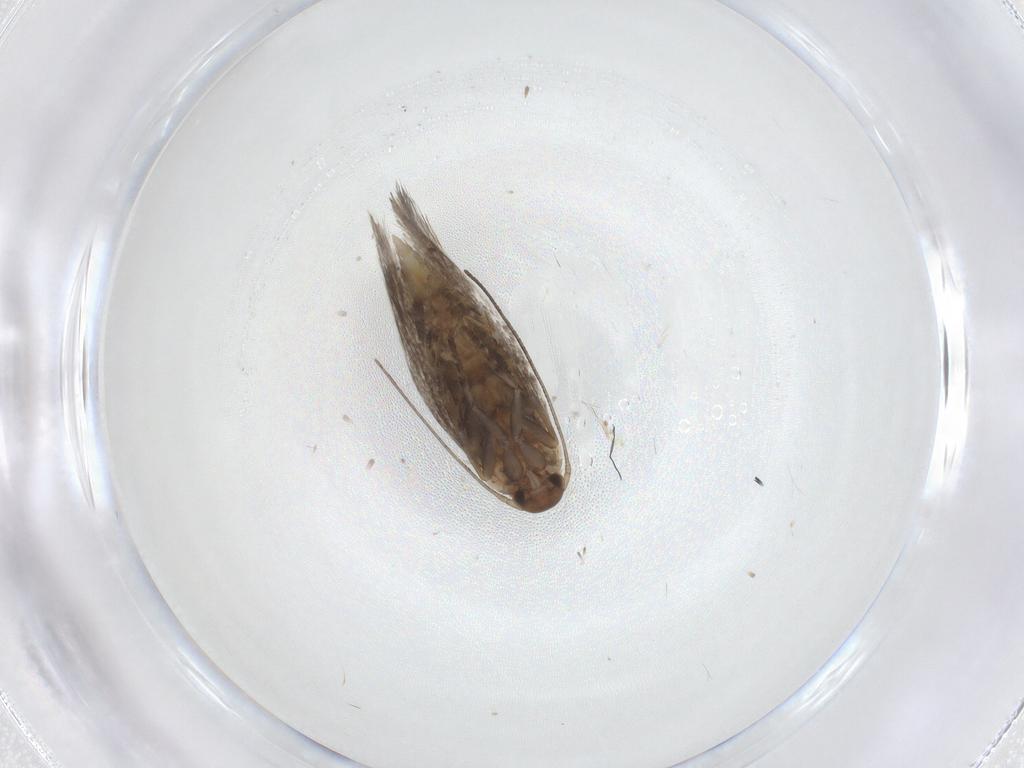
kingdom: Animalia
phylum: Arthropoda
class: Insecta
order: Lepidoptera
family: Elachistidae
